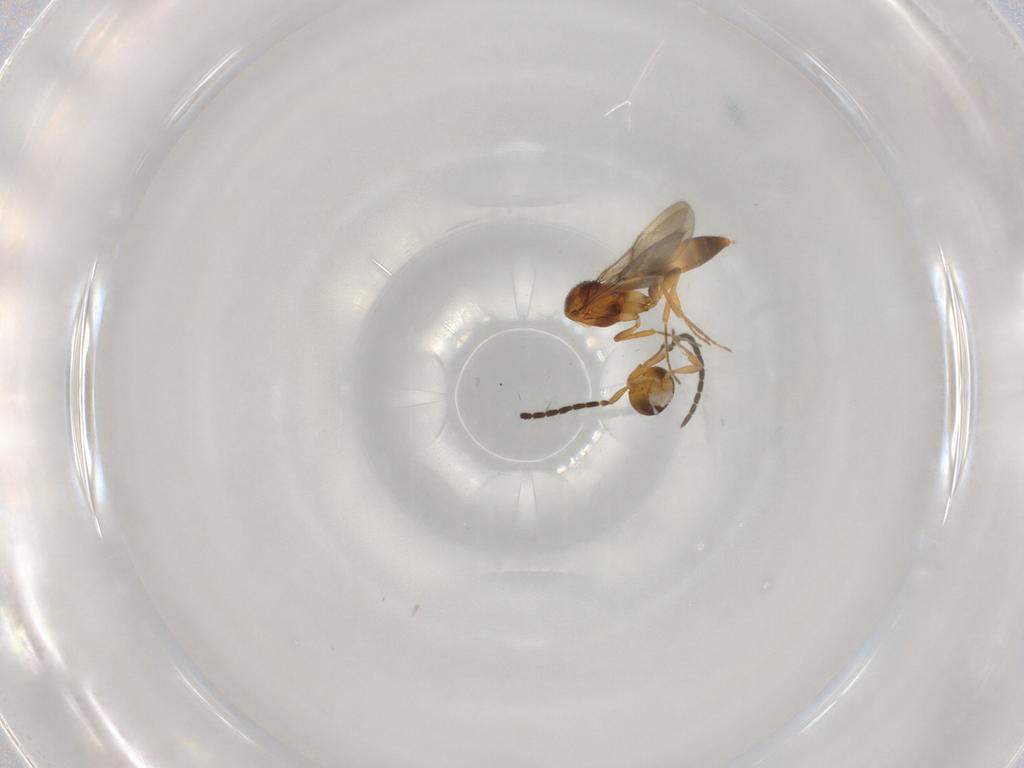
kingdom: Animalia
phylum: Arthropoda
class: Insecta
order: Hymenoptera
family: Scelionidae
